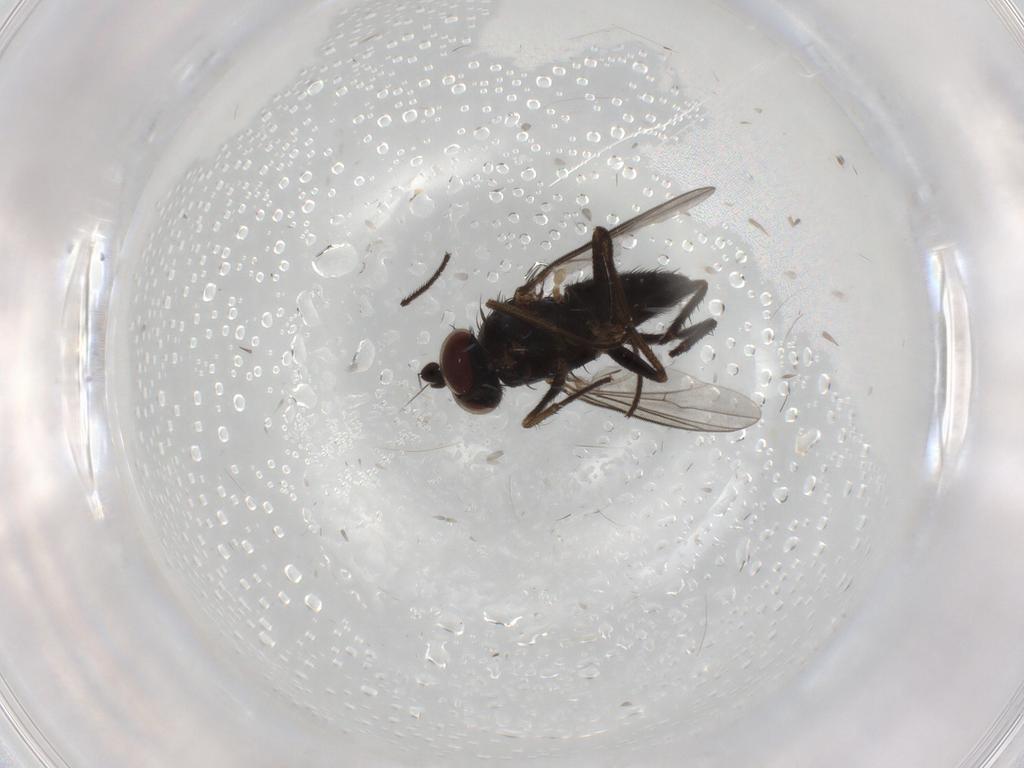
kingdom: Animalia
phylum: Arthropoda
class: Insecta
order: Diptera
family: Dolichopodidae
